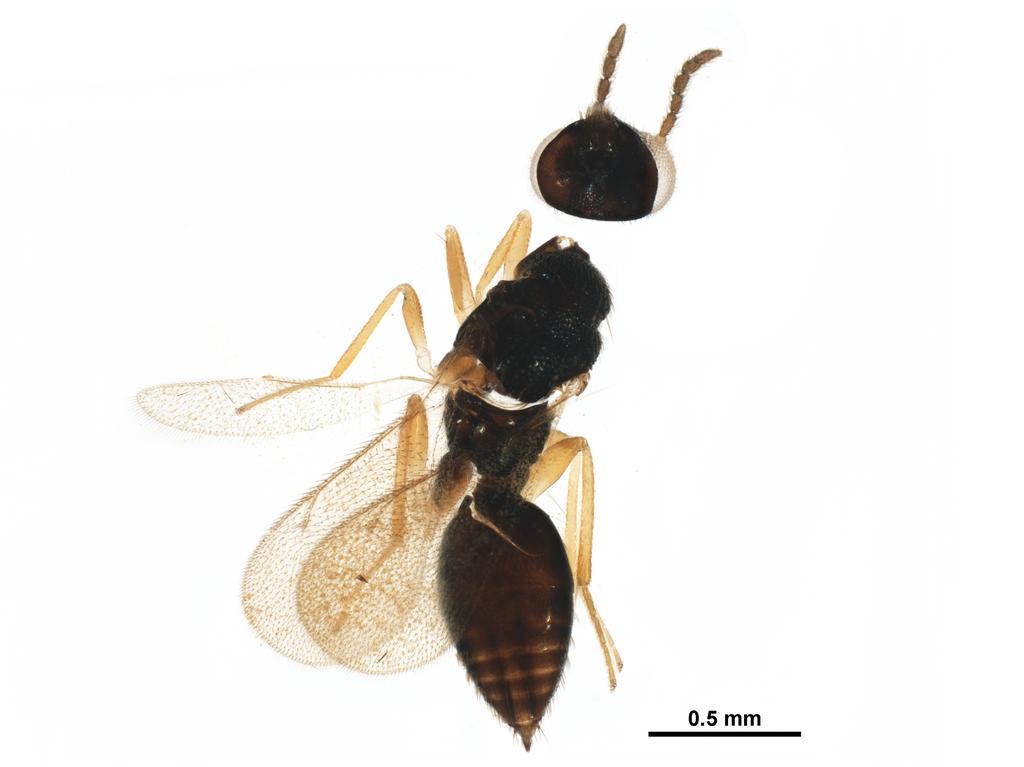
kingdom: Animalia
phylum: Arthropoda
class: Insecta
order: Hymenoptera
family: Eulophidae
